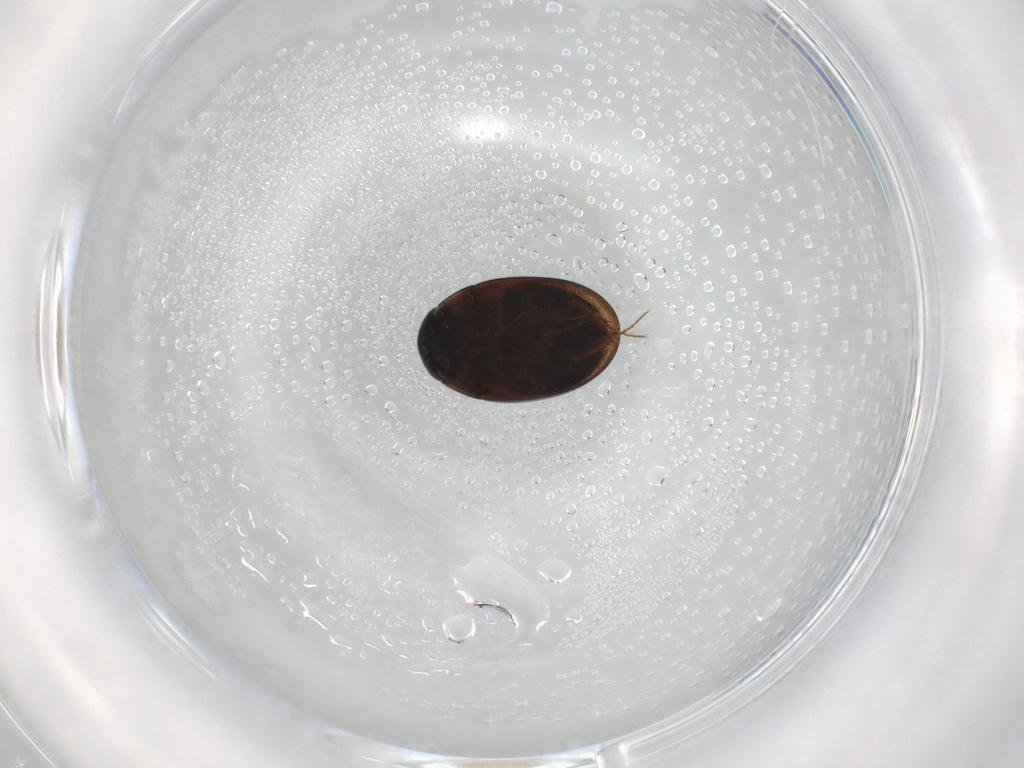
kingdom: Animalia
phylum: Arthropoda
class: Insecta
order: Coleoptera
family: Hydrophilidae
